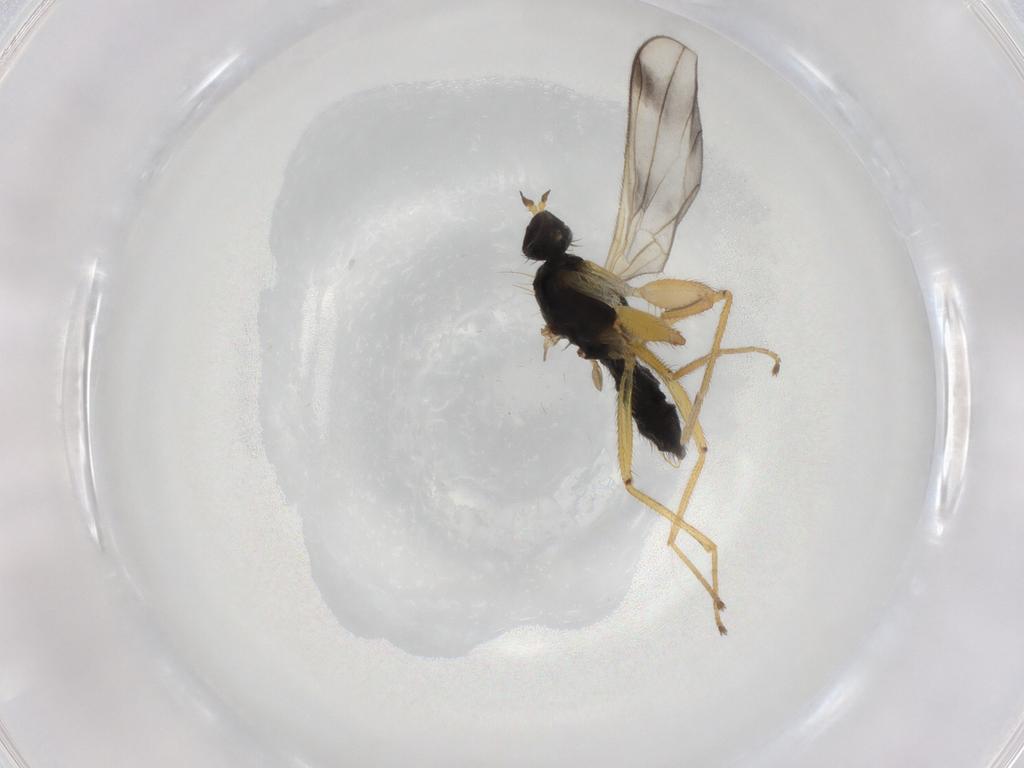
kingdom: Animalia
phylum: Arthropoda
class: Insecta
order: Diptera
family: Empididae
